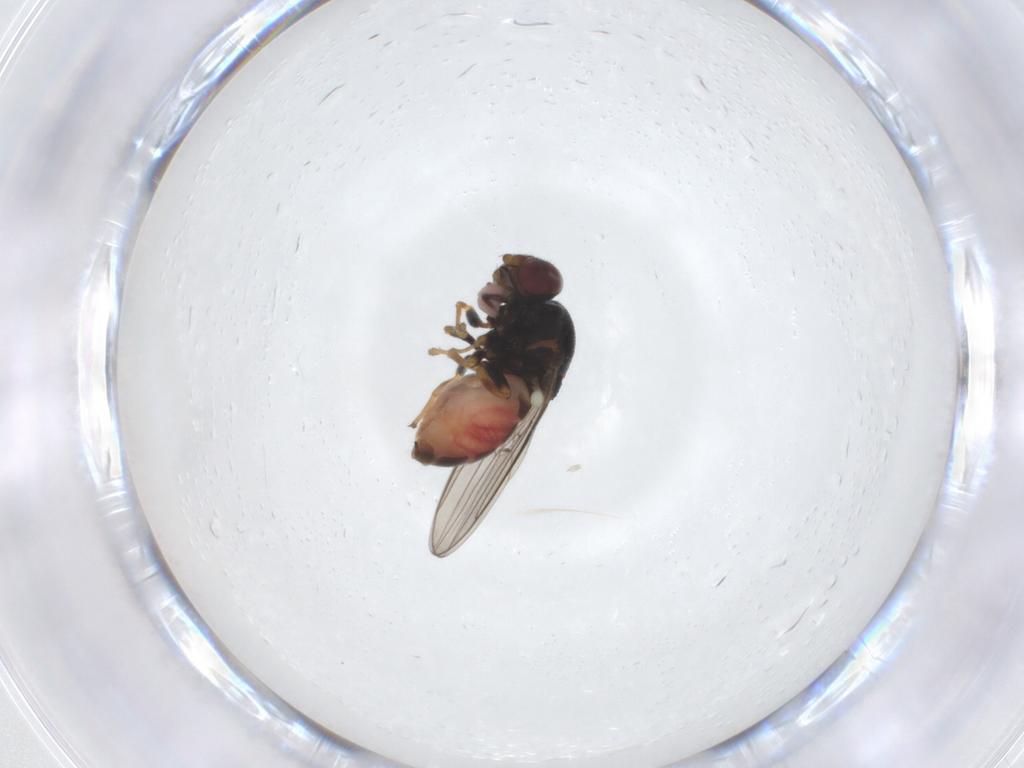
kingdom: Animalia
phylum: Arthropoda
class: Insecta
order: Diptera
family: Chloropidae
